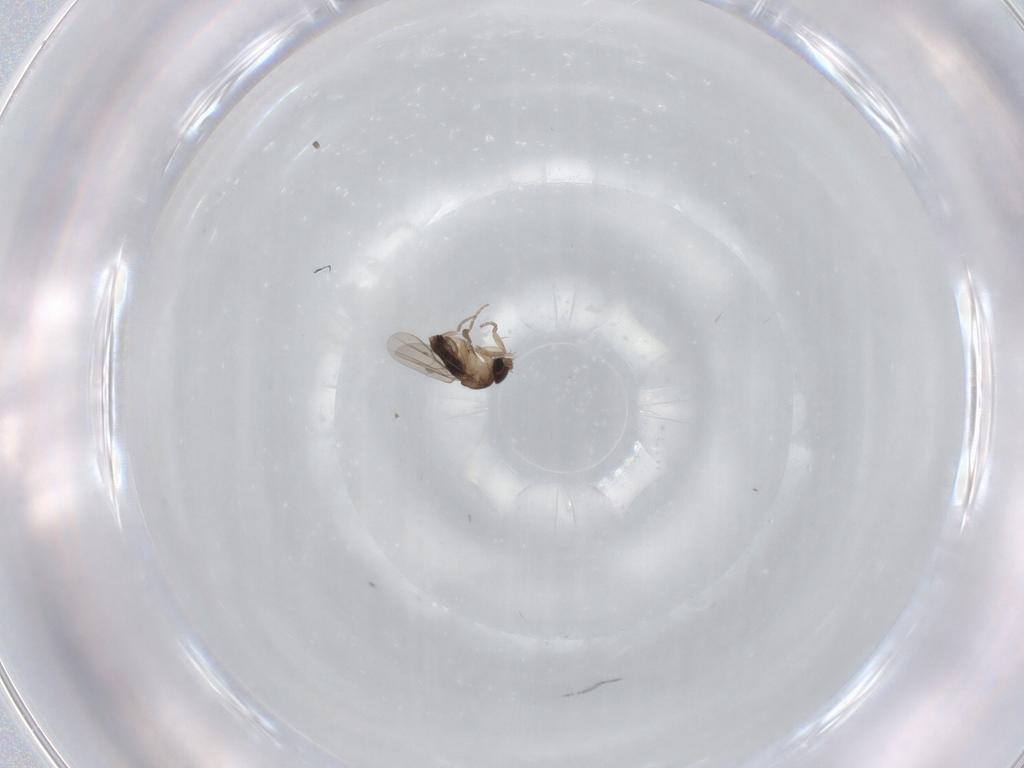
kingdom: Animalia
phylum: Arthropoda
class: Insecta
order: Diptera
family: Phoridae
